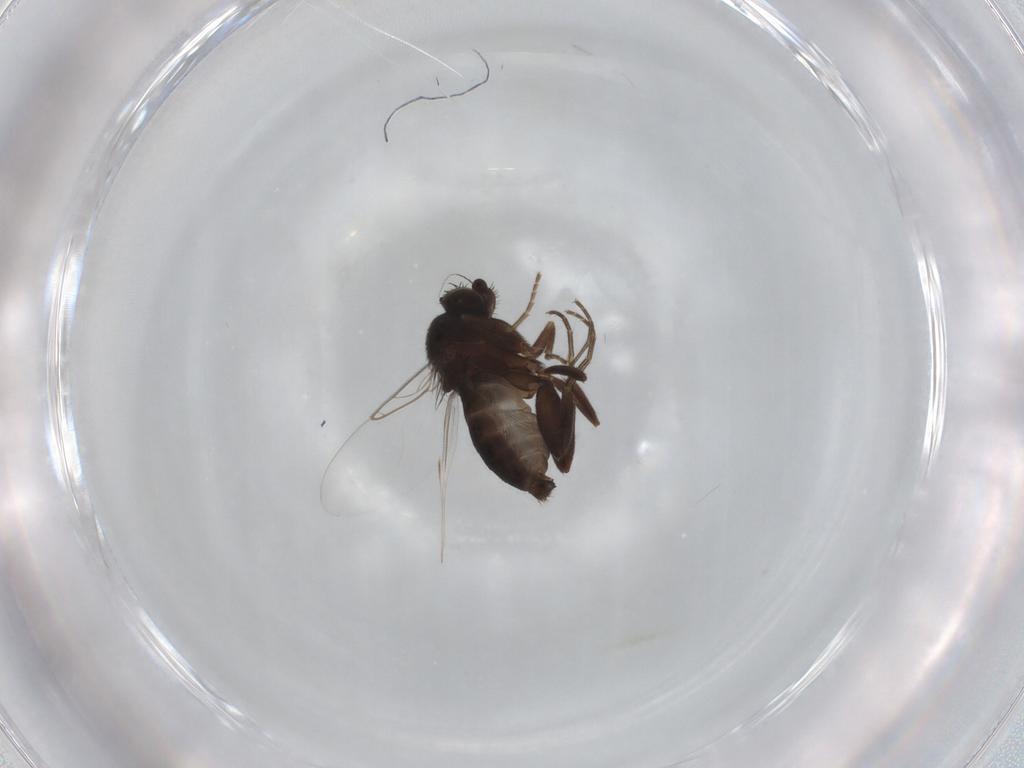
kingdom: Animalia
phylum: Arthropoda
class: Insecta
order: Diptera
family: Phoridae
